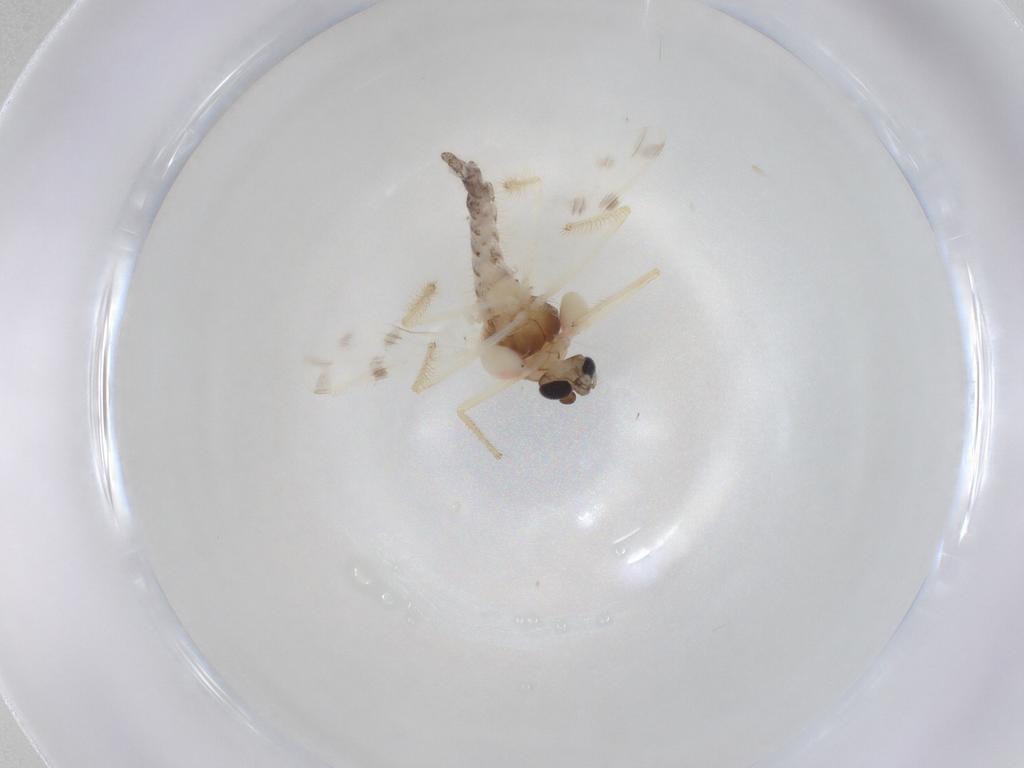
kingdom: Animalia
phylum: Arthropoda
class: Insecta
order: Diptera
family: Chironomidae
